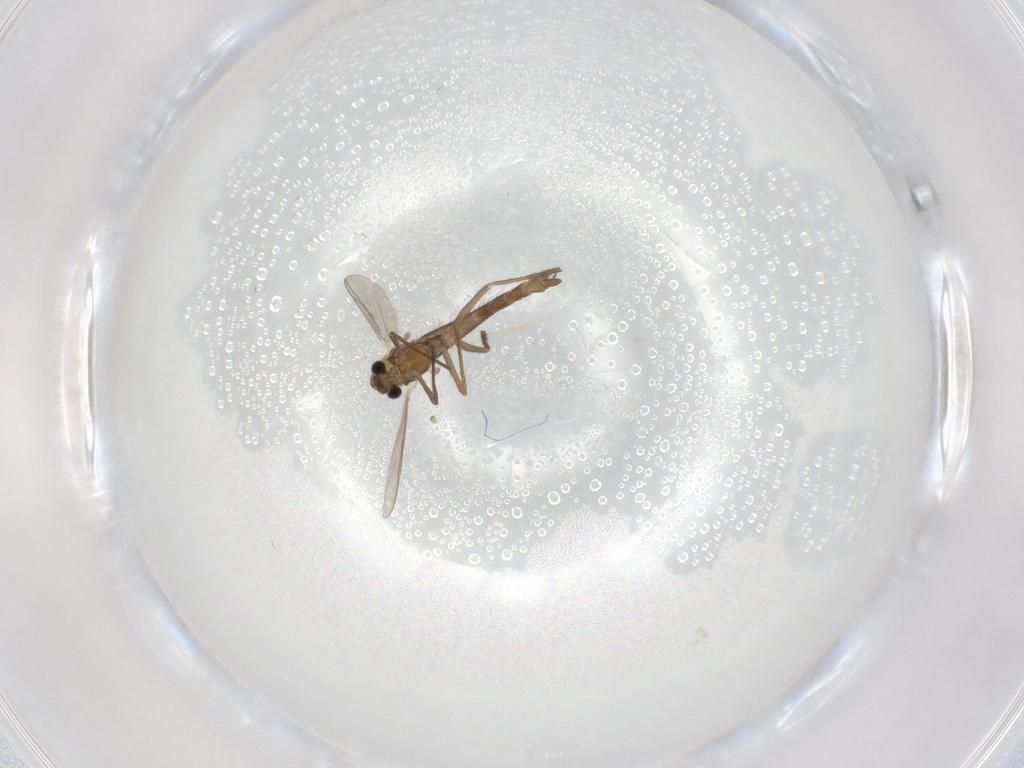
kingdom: Animalia
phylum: Arthropoda
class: Insecta
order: Diptera
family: Chironomidae
